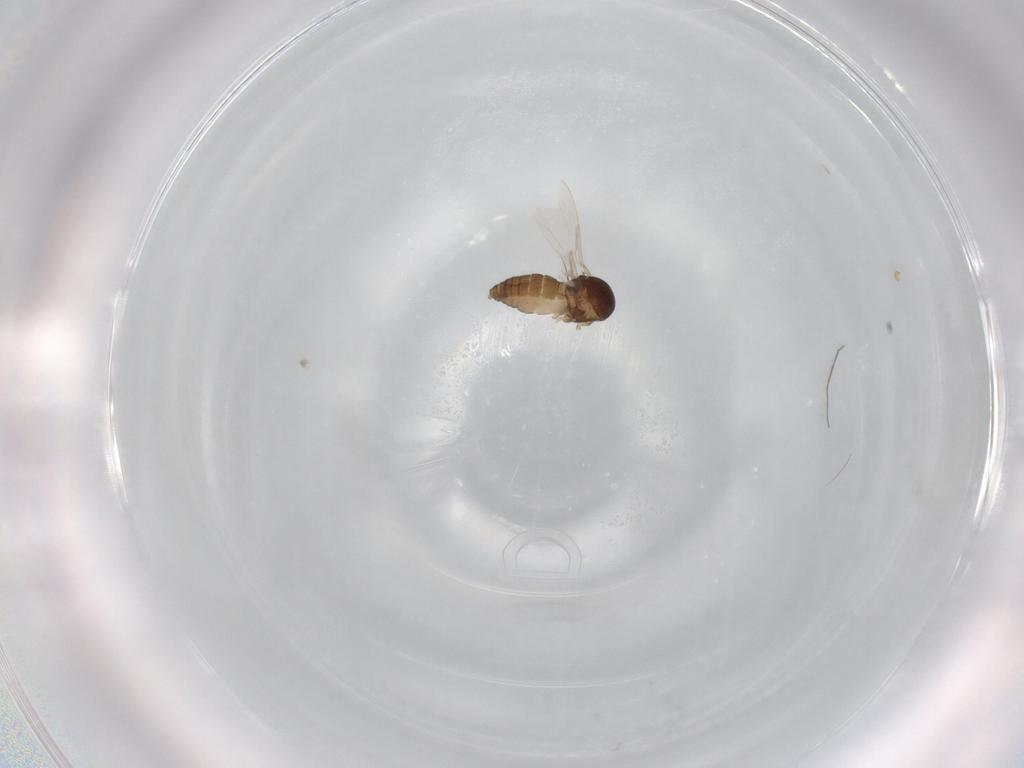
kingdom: Animalia
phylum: Arthropoda
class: Insecta
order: Diptera
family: Ceratopogonidae
